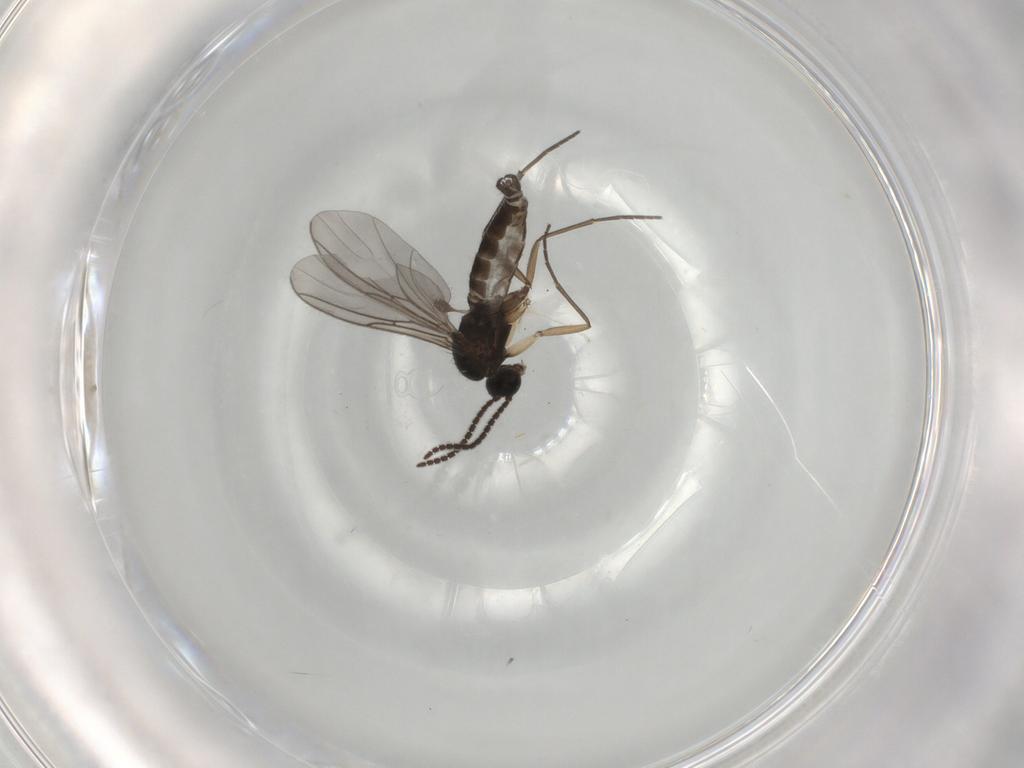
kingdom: Animalia
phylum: Arthropoda
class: Insecta
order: Diptera
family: Sciaridae
